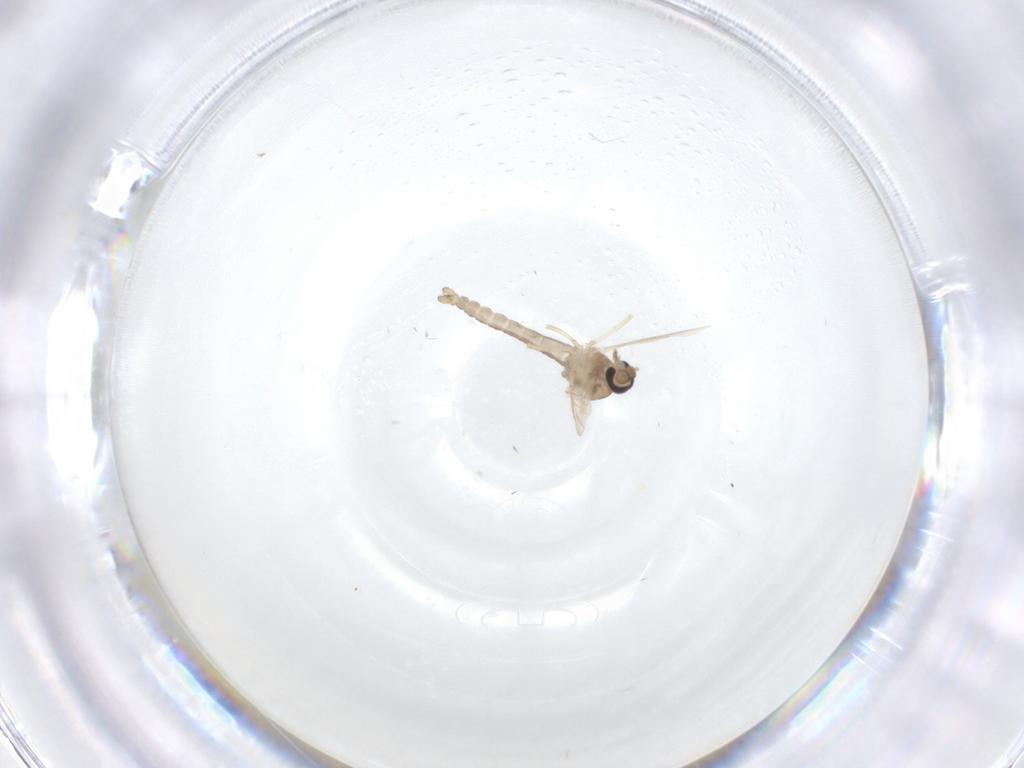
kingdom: Animalia
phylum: Arthropoda
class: Insecta
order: Diptera
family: Ceratopogonidae
